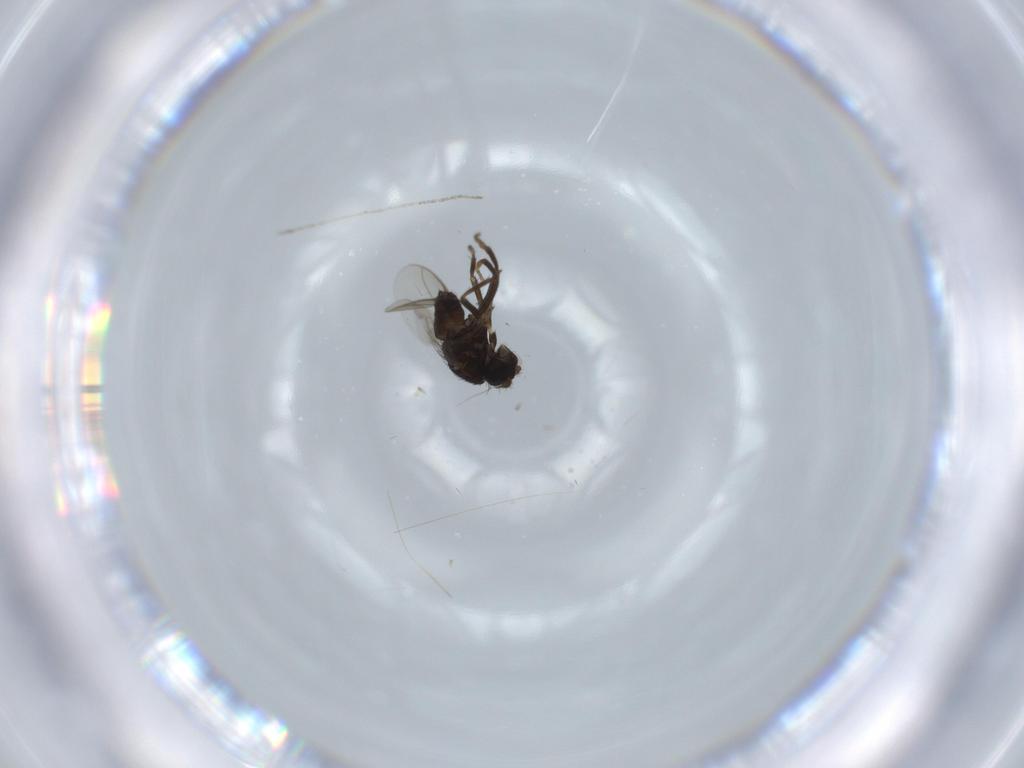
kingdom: Animalia
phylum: Arthropoda
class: Insecta
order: Diptera
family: Sphaeroceridae
